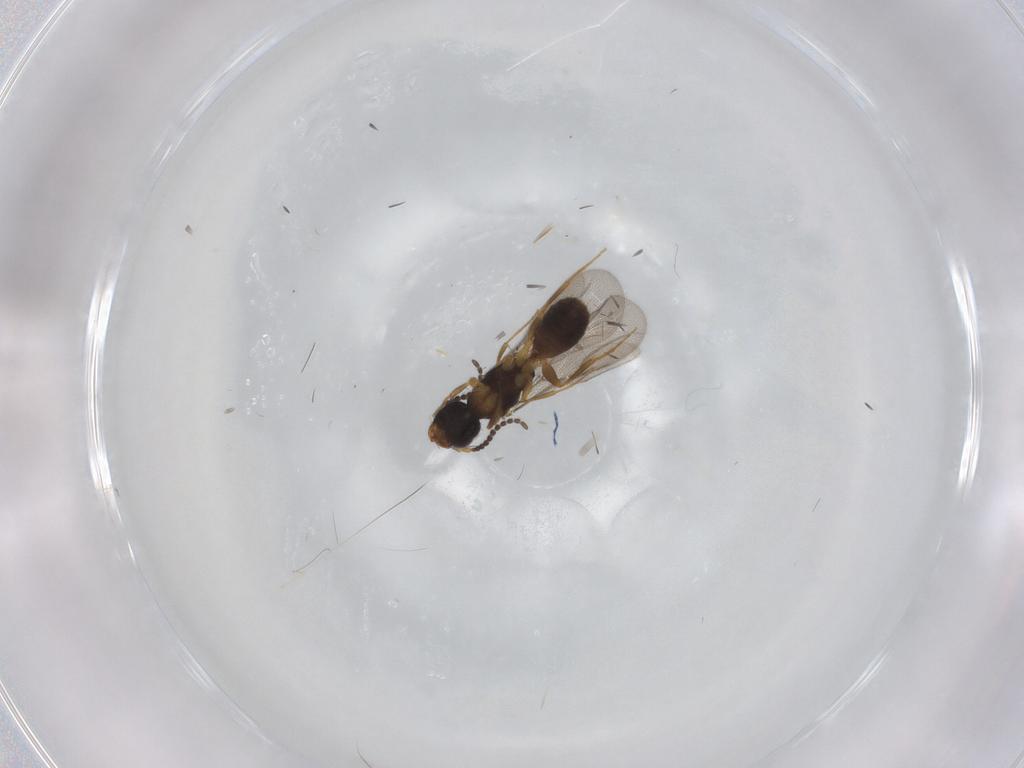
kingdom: Animalia
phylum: Arthropoda
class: Insecta
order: Hymenoptera
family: Bethylidae
